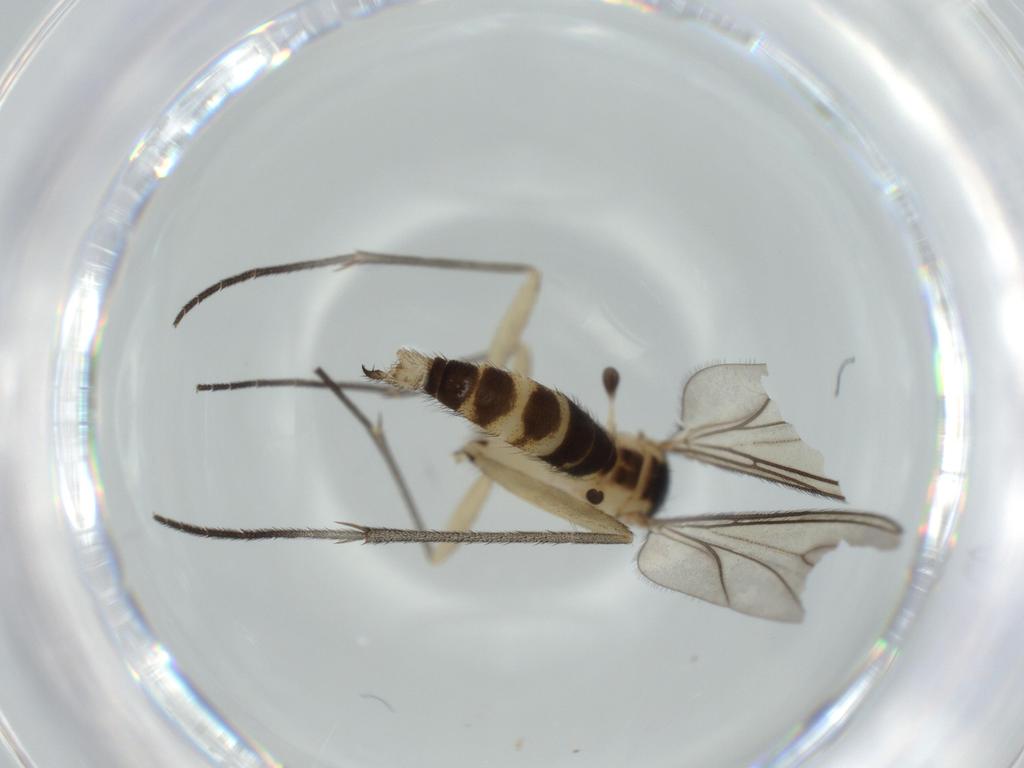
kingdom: Animalia
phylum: Arthropoda
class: Insecta
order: Diptera
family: Sciaridae
